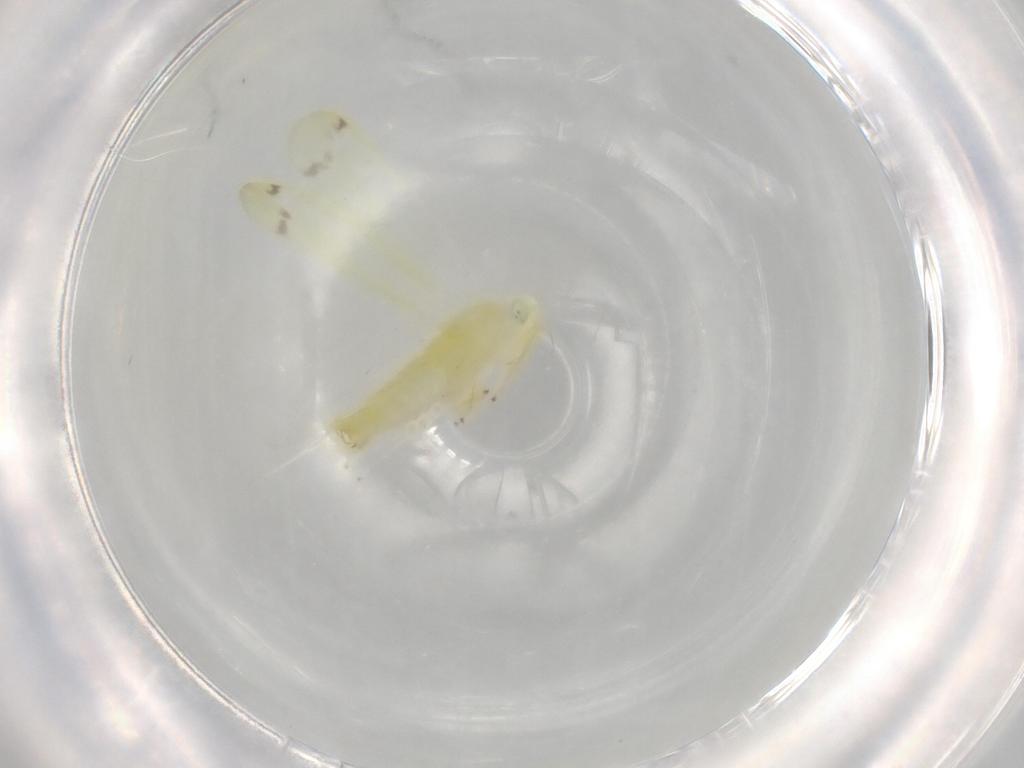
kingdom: Animalia
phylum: Arthropoda
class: Insecta
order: Hemiptera
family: Cicadellidae
